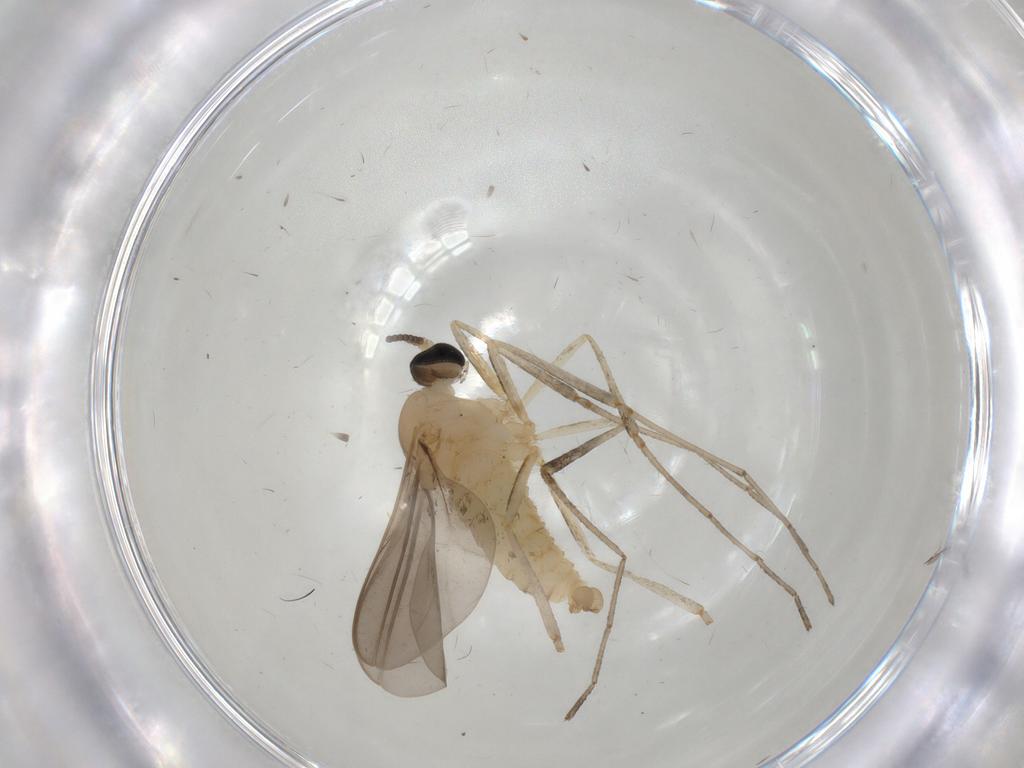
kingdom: Animalia
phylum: Arthropoda
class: Insecta
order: Diptera
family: Cecidomyiidae
